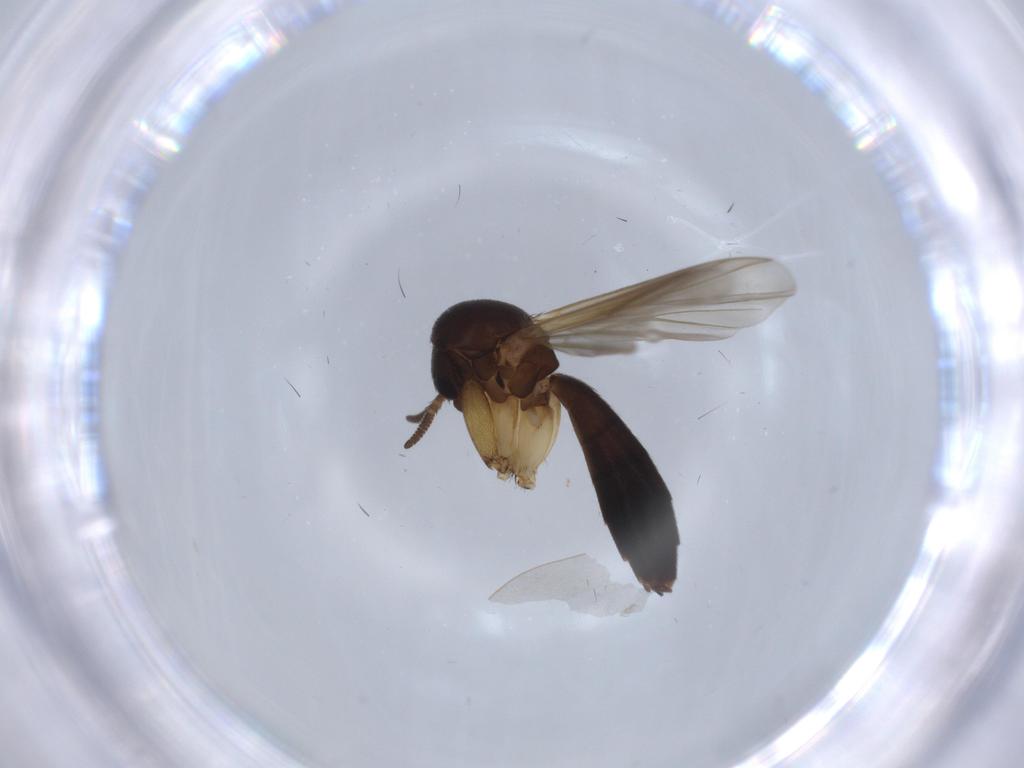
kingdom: Animalia
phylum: Arthropoda
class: Insecta
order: Diptera
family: Mycetophilidae
